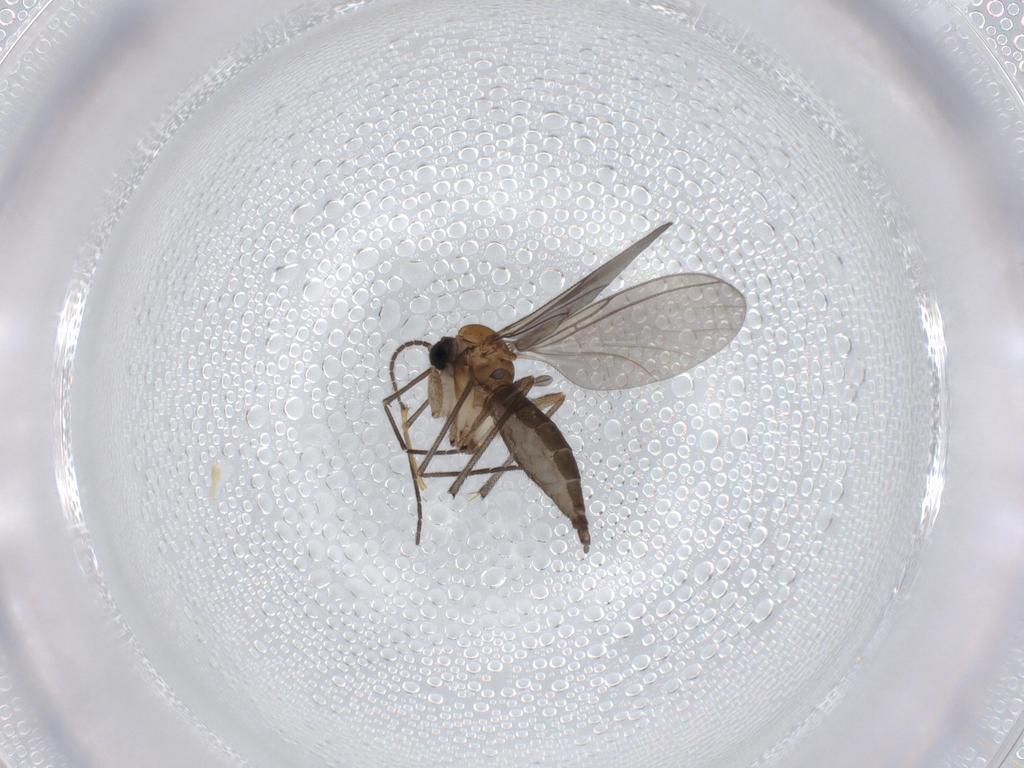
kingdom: Animalia
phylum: Arthropoda
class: Insecta
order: Diptera
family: Sciaridae
